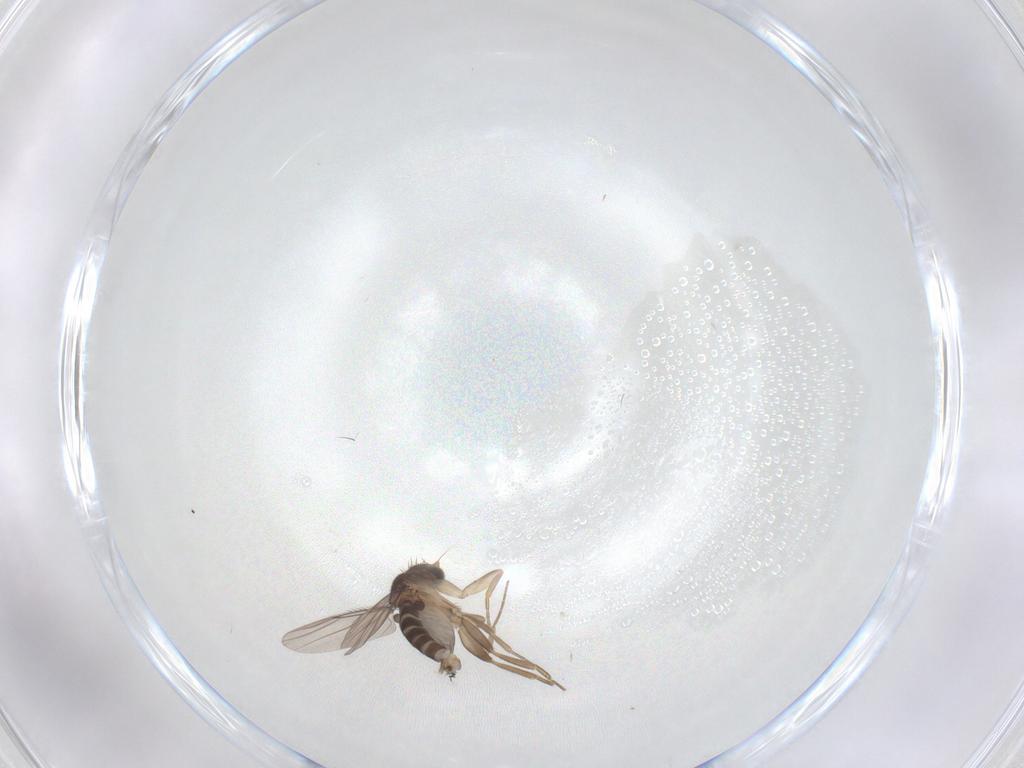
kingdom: Animalia
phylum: Arthropoda
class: Insecta
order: Diptera
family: Phoridae
